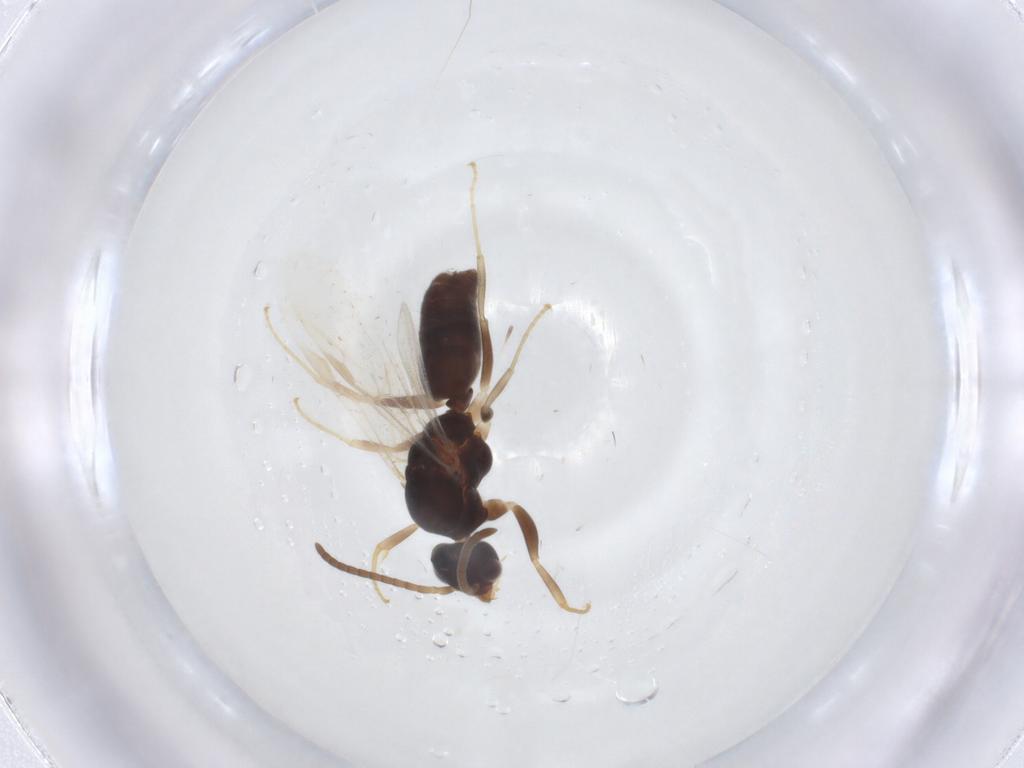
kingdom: Animalia
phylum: Arthropoda
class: Insecta
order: Hymenoptera
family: Formicidae
